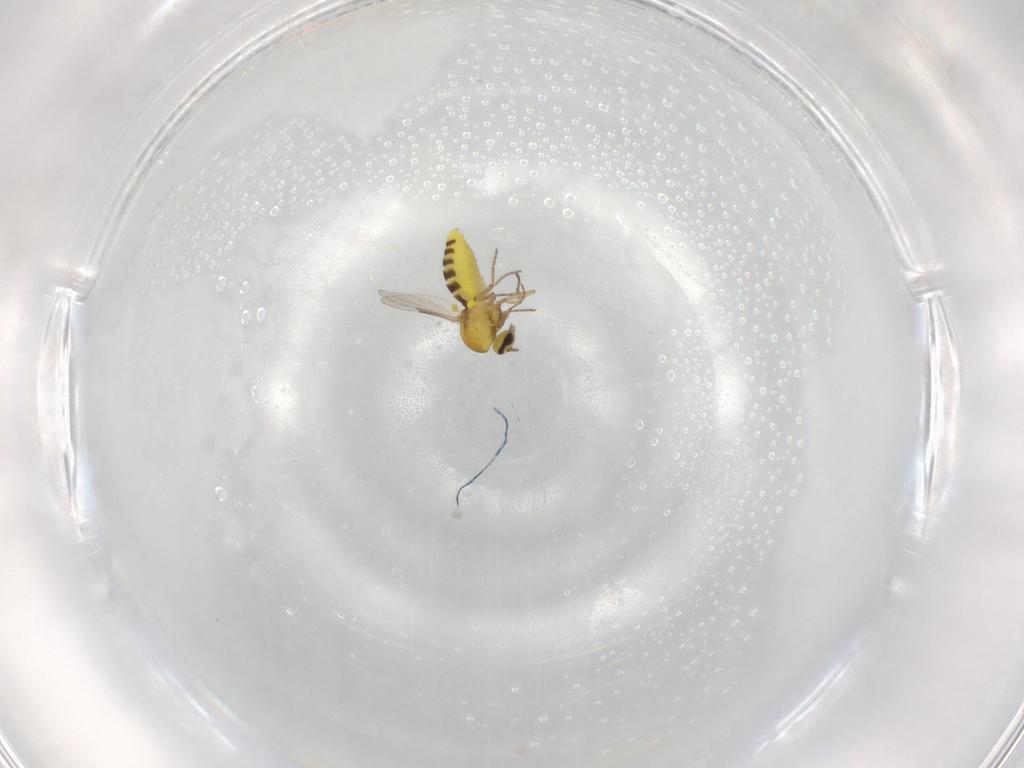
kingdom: Animalia
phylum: Arthropoda
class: Insecta
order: Diptera
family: Ceratopogonidae
